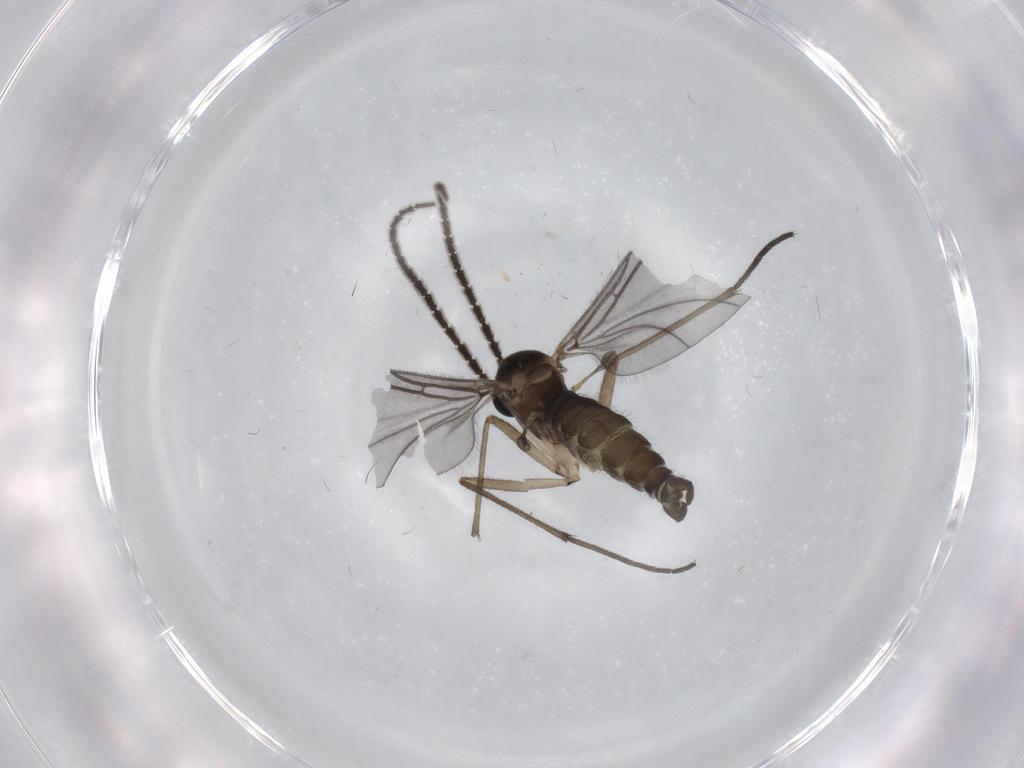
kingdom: Animalia
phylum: Arthropoda
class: Insecta
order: Diptera
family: Sciaridae
